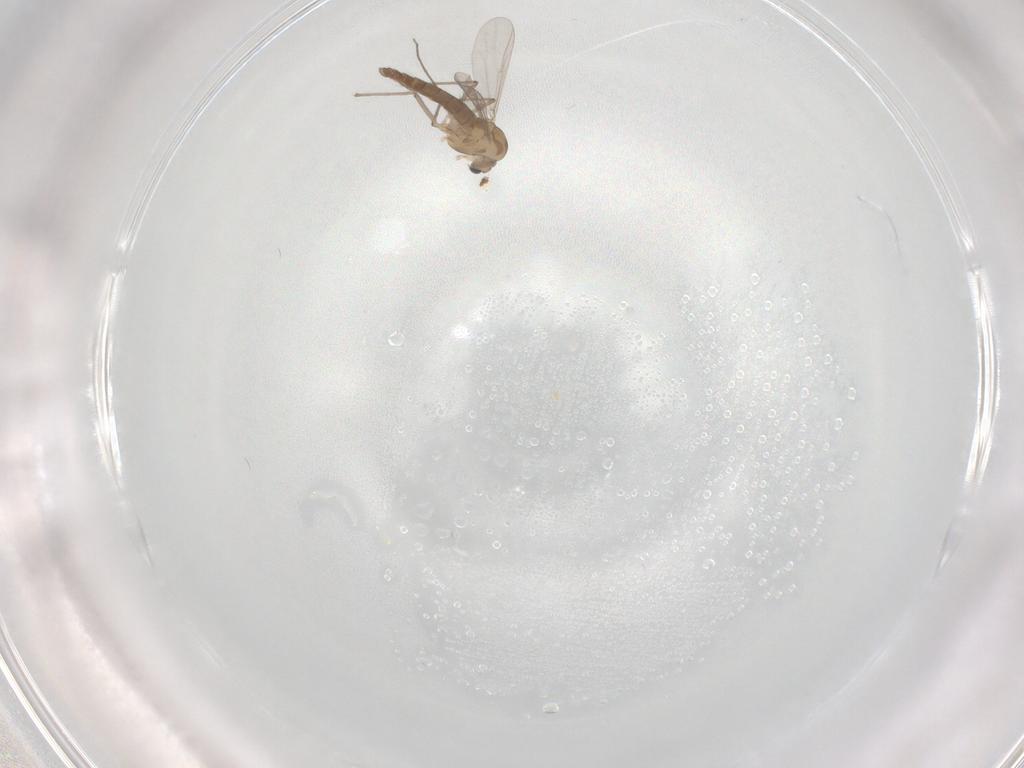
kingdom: Animalia
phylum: Arthropoda
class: Insecta
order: Diptera
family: Chironomidae
